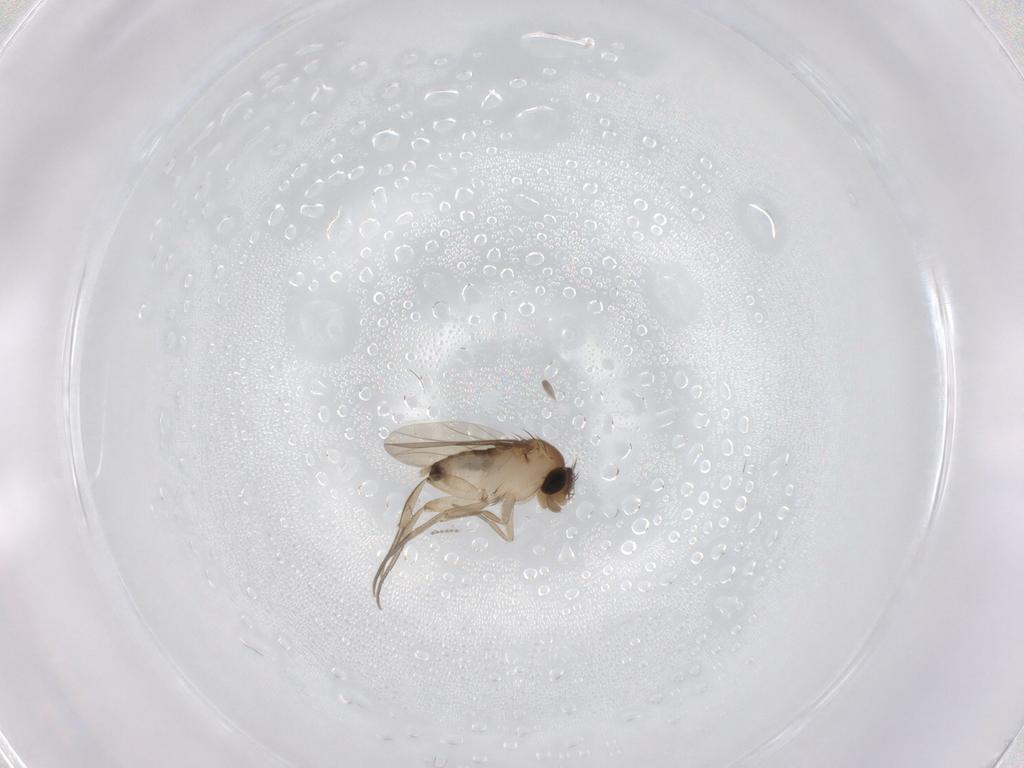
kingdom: Animalia
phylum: Arthropoda
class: Insecta
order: Diptera
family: Phoridae
